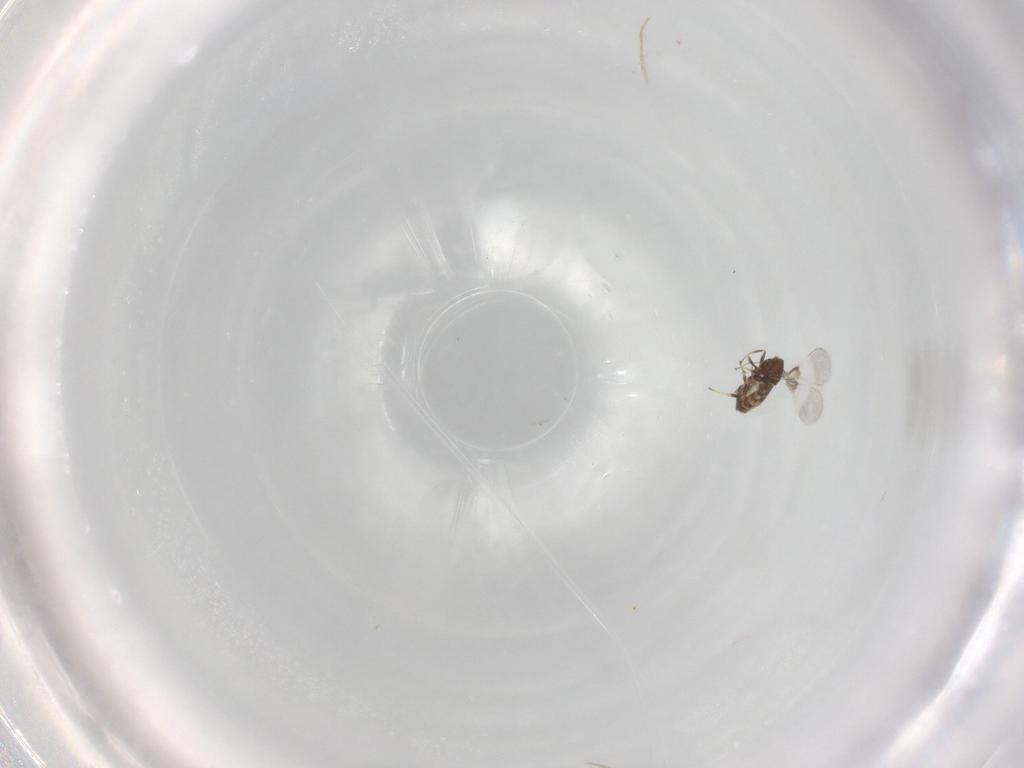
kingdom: Animalia
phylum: Arthropoda
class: Insecta
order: Hymenoptera
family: Formicidae
